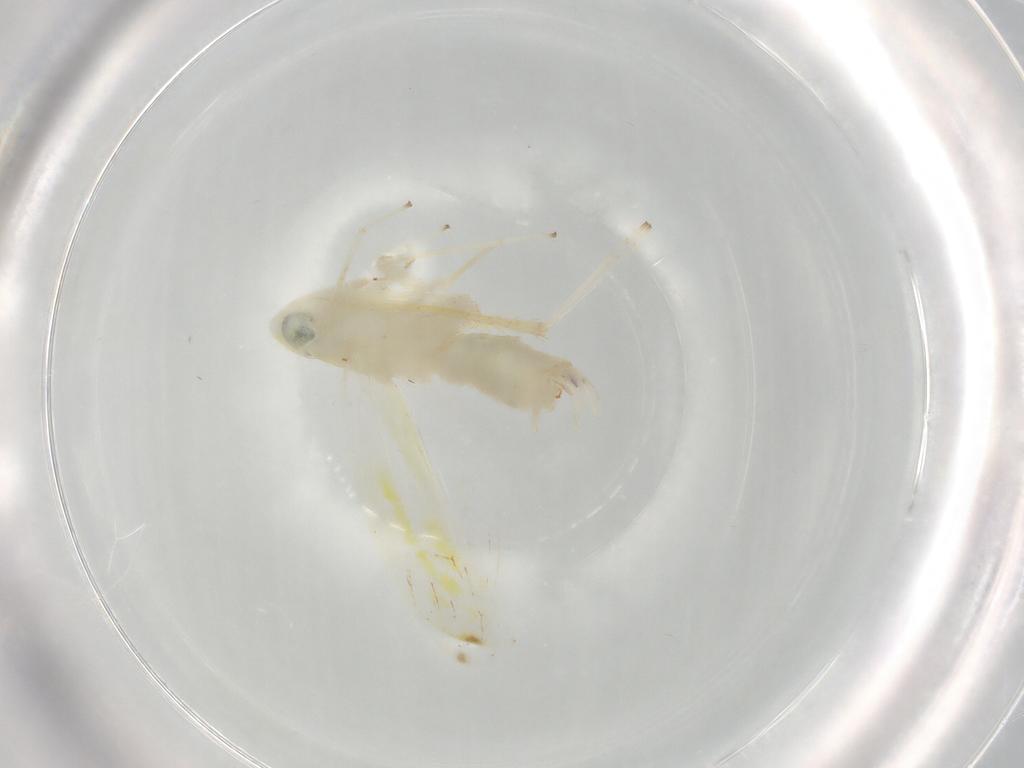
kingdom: Animalia
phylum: Arthropoda
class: Insecta
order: Hemiptera
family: Cicadellidae
